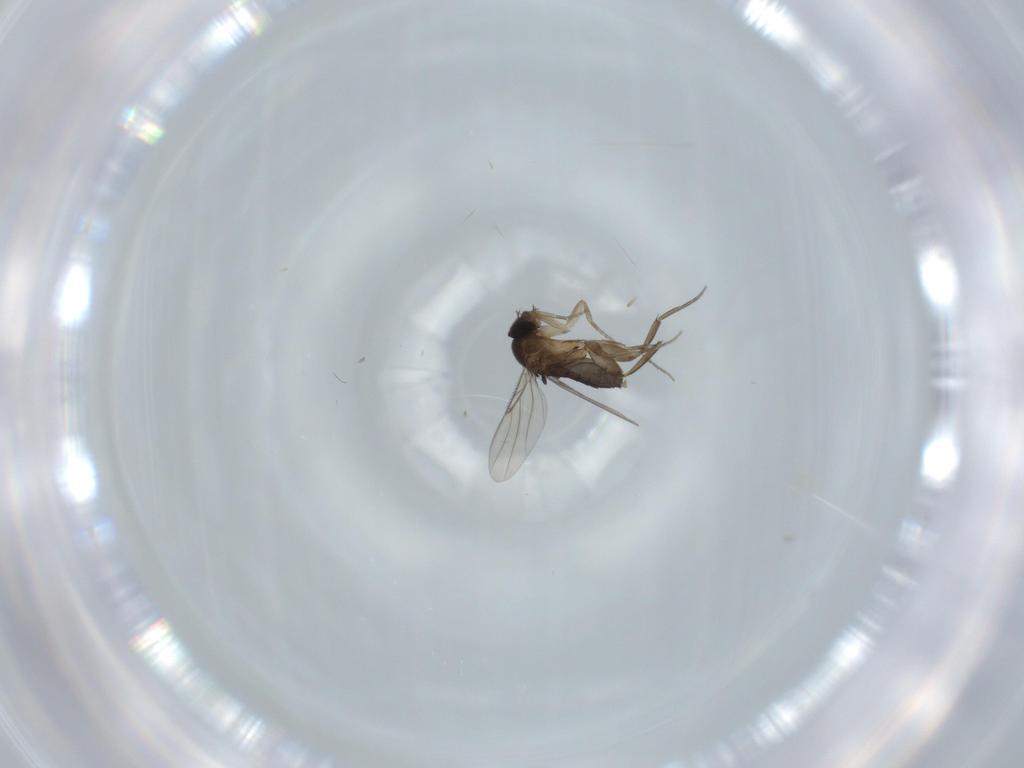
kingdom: Animalia
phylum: Arthropoda
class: Insecta
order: Diptera
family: Phoridae
